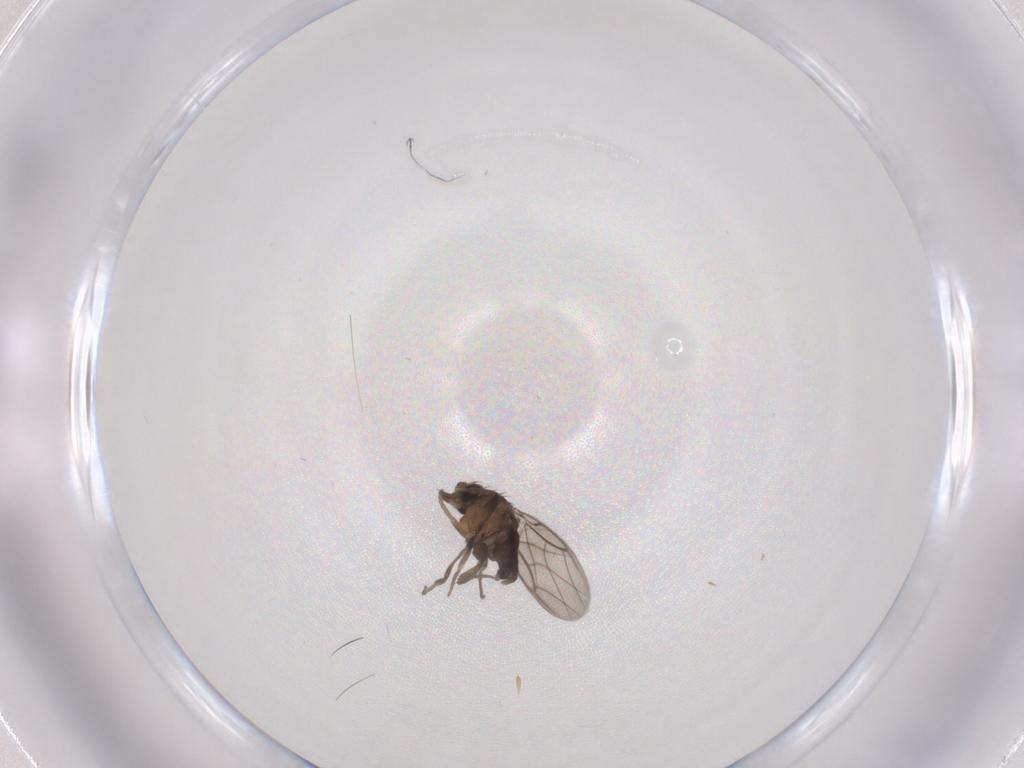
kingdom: Animalia
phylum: Arthropoda
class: Insecta
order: Diptera
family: Phoridae
